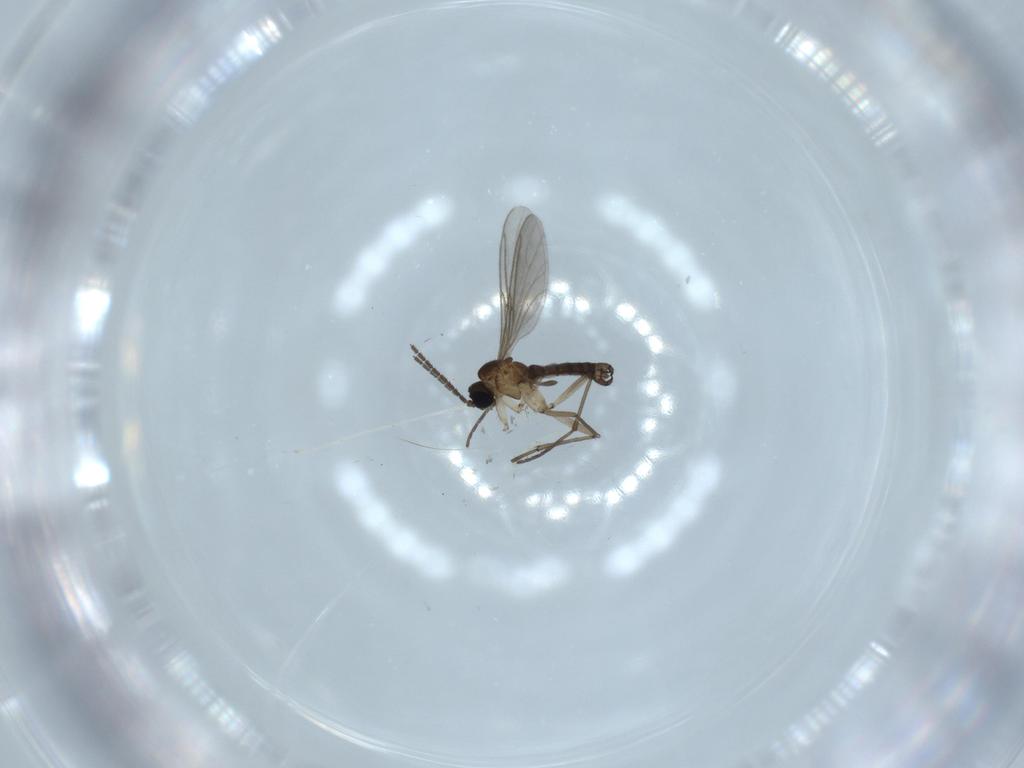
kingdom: Animalia
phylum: Arthropoda
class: Insecta
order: Diptera
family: Sciaridae
